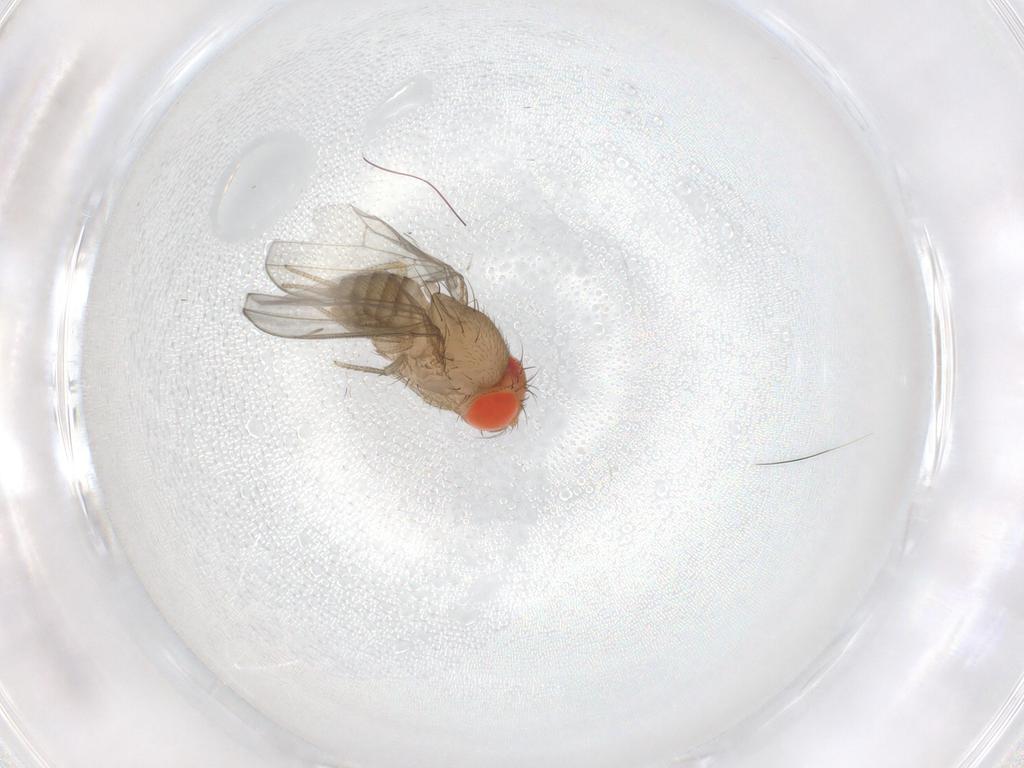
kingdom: Animalia
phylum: Arthropoda
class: Insecta
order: Diptera
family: Drosophilidae
